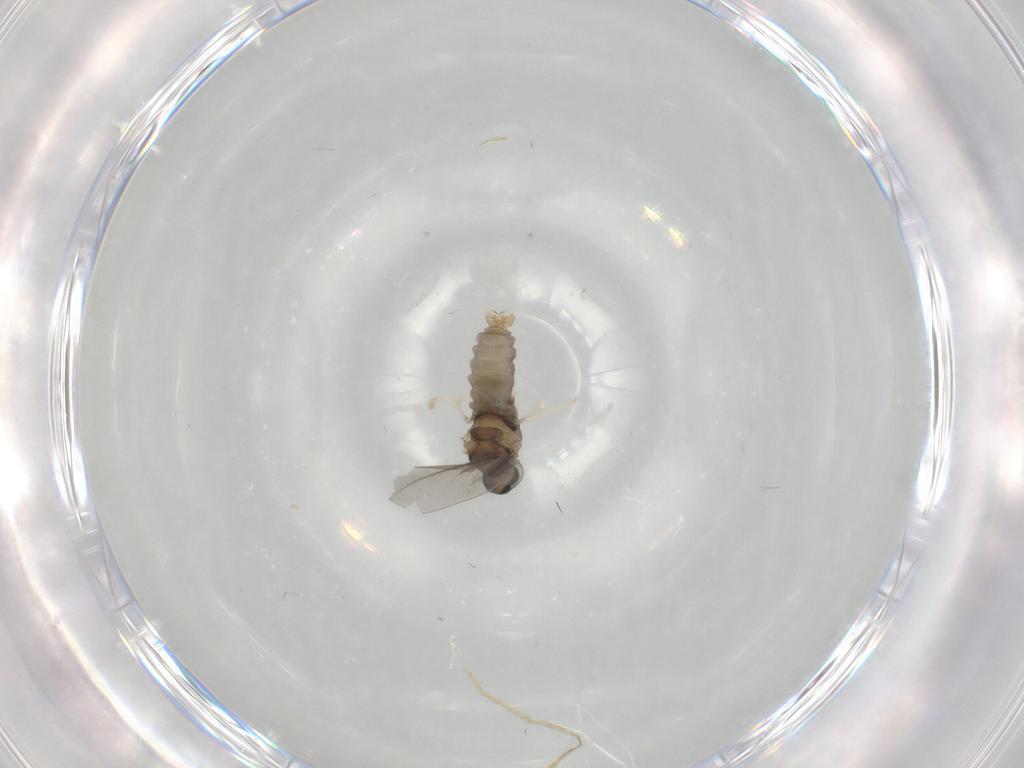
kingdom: Animalia
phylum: Arthropoda
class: Insecta
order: Diptera
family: Cecidomyiidae
